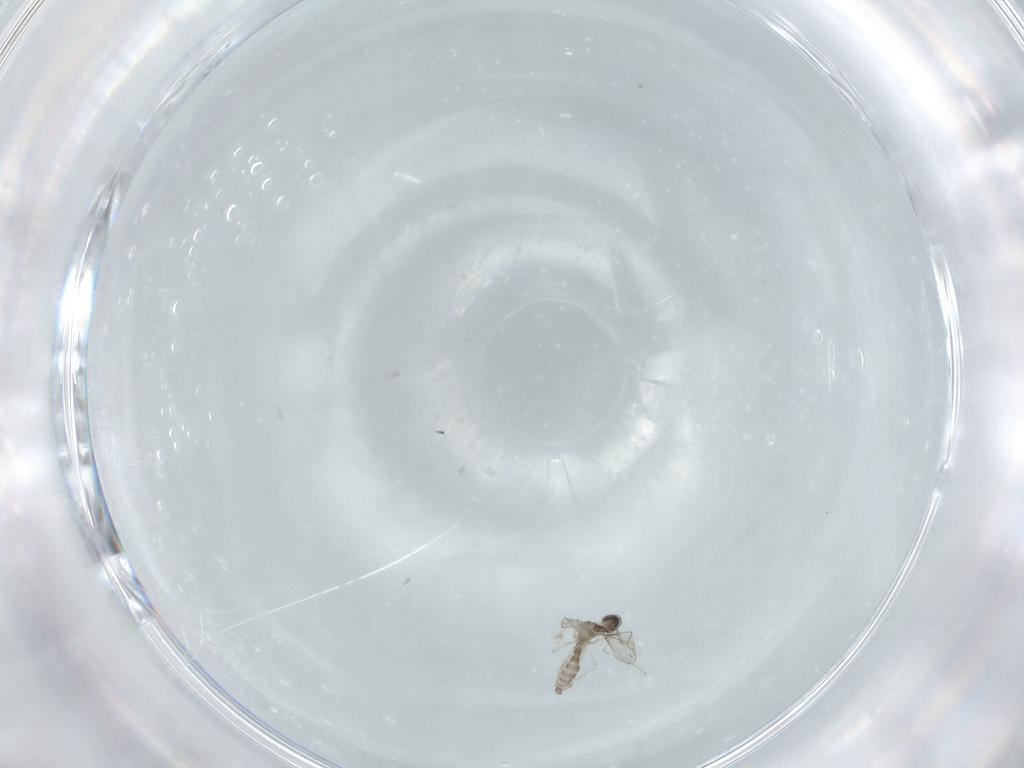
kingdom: Animalia
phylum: Arthropoda
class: Insecta
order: Diptera
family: Cecidomyiidae
